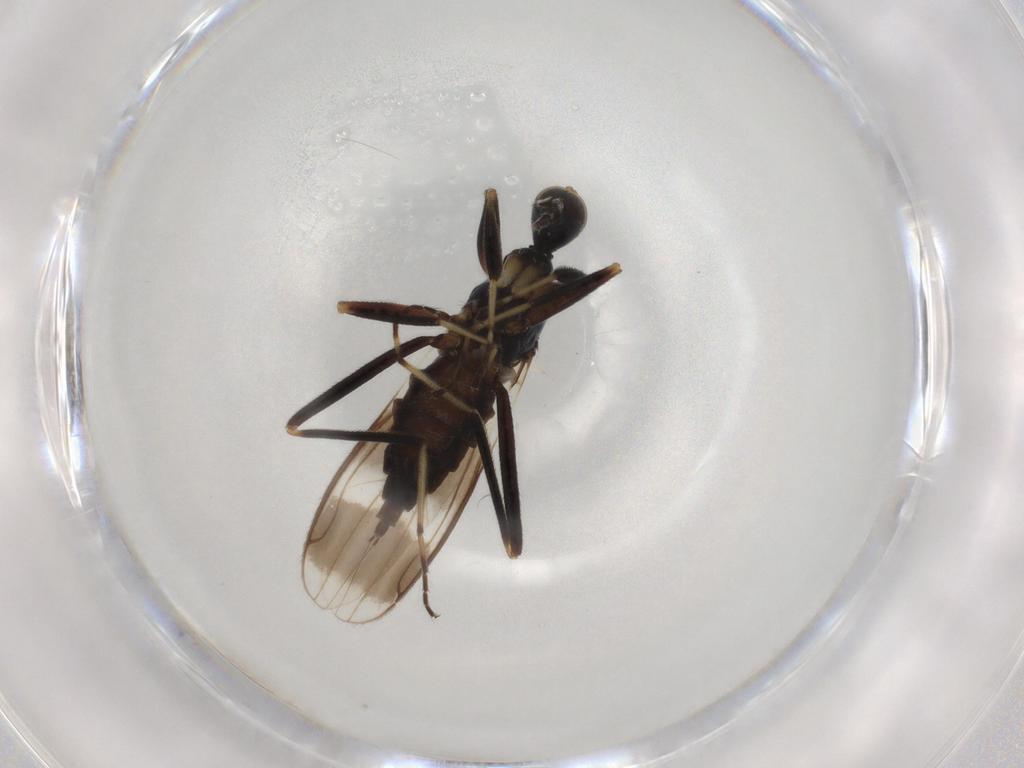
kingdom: Animalia
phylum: Arthropoda
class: Insecta
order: Diptera
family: Hybotidae
